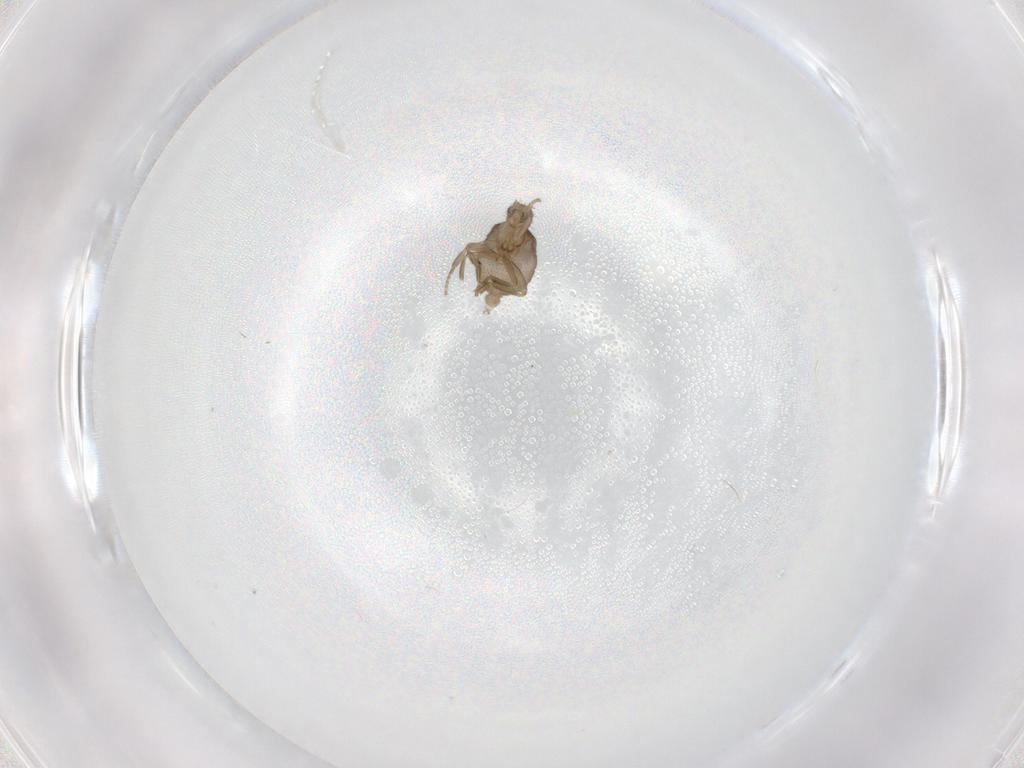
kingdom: Animalia
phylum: Arthropoda
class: Insecta
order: Diptera
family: Phoridae
